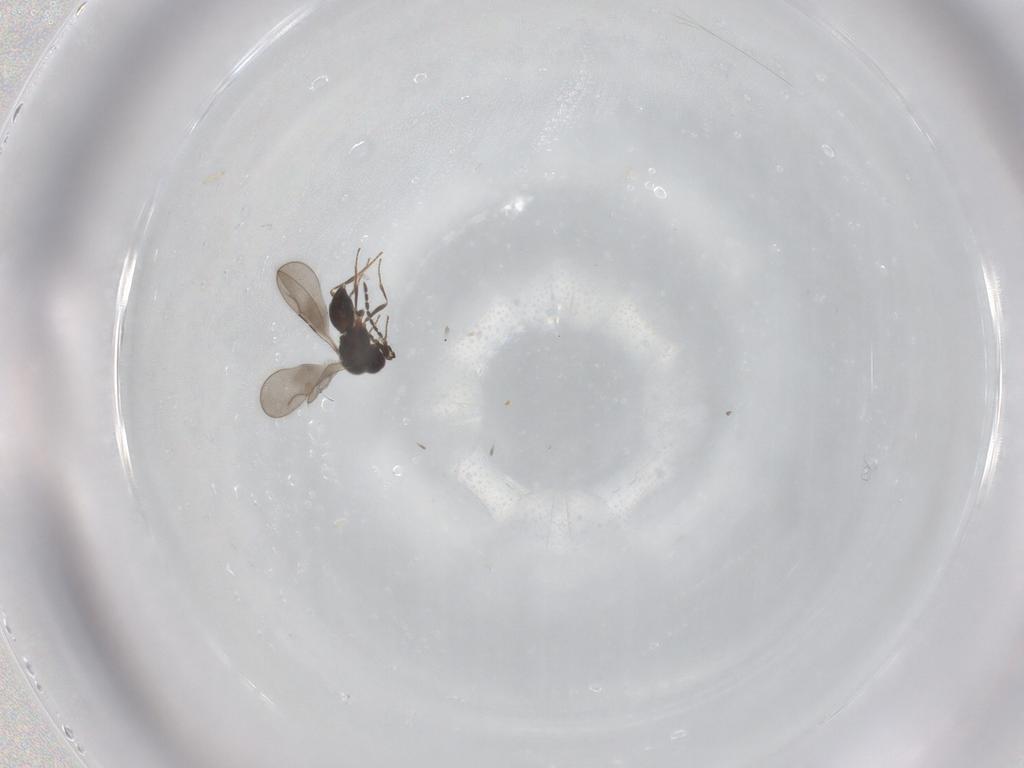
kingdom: Animalia
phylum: Arthropoda
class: Insecta
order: Hymenoptera
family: Ceraphronidae
